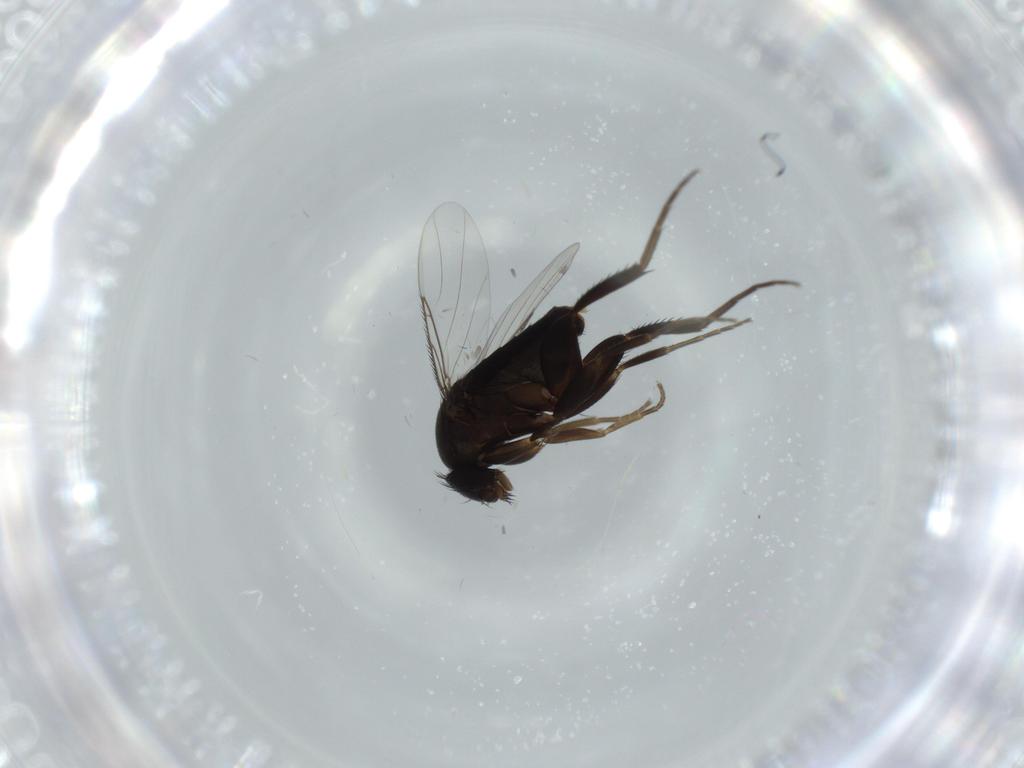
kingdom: Animalia
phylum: Arthropoda
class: Insecta
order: Diptera
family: Phoridae
